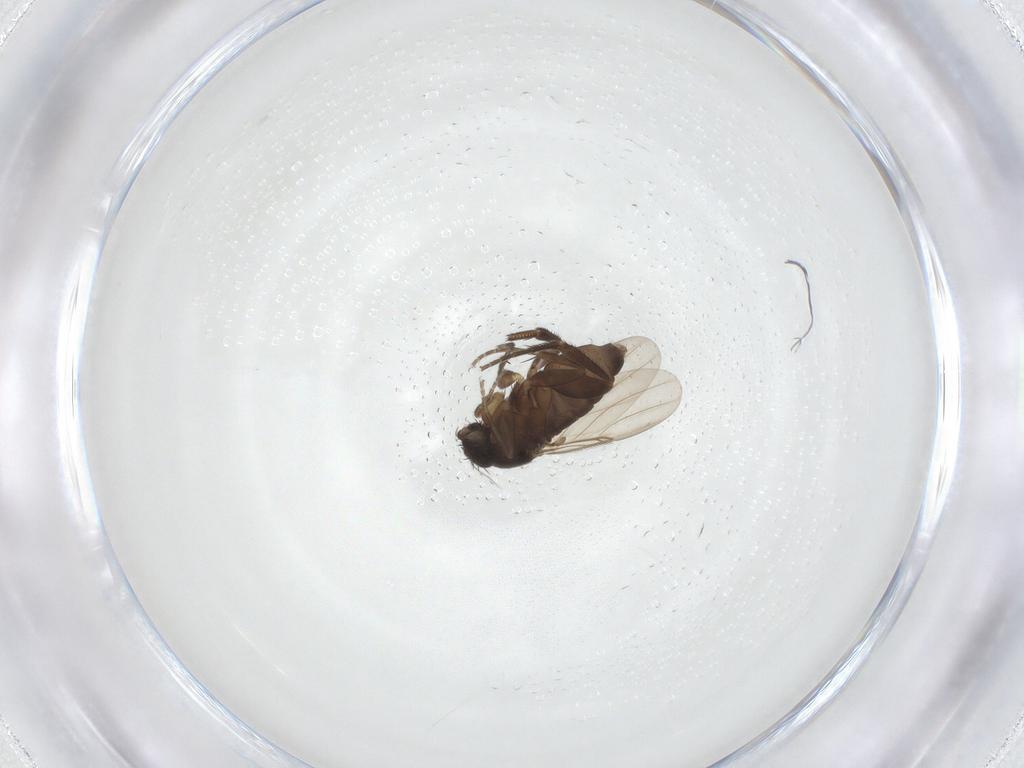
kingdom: Animalia
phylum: Arthropoda
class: Insecta
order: Diptera
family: Phoridae
